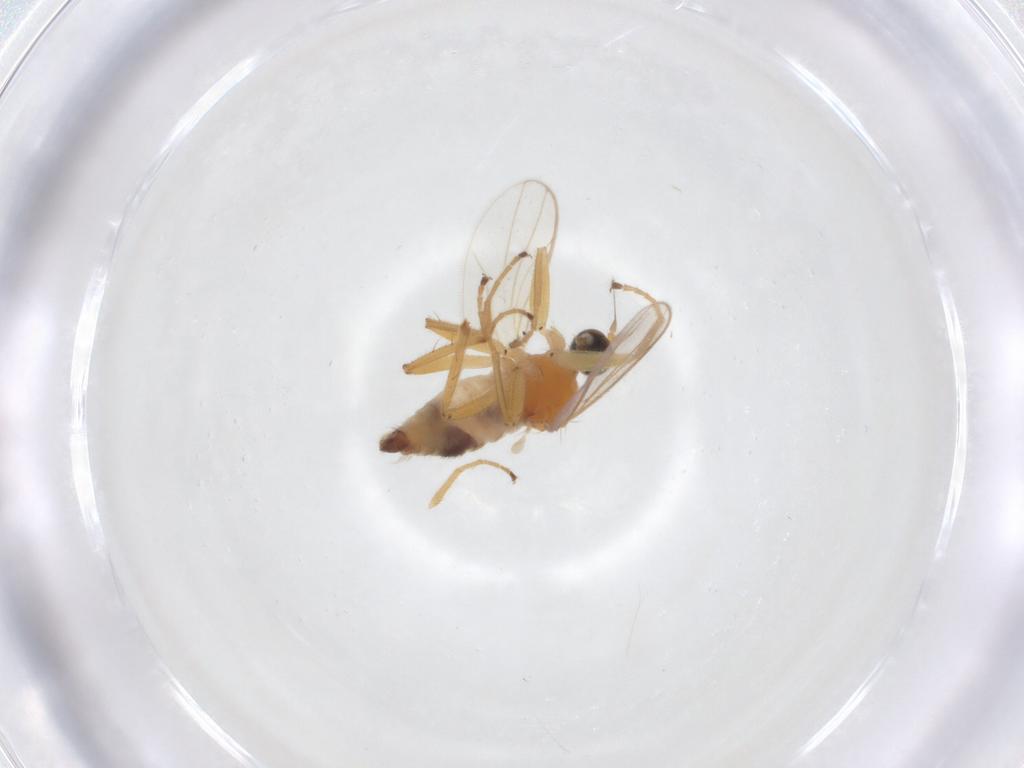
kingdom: Animalia
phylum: Arthropoda
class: Insecta
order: Diptera
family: Hybotidae
